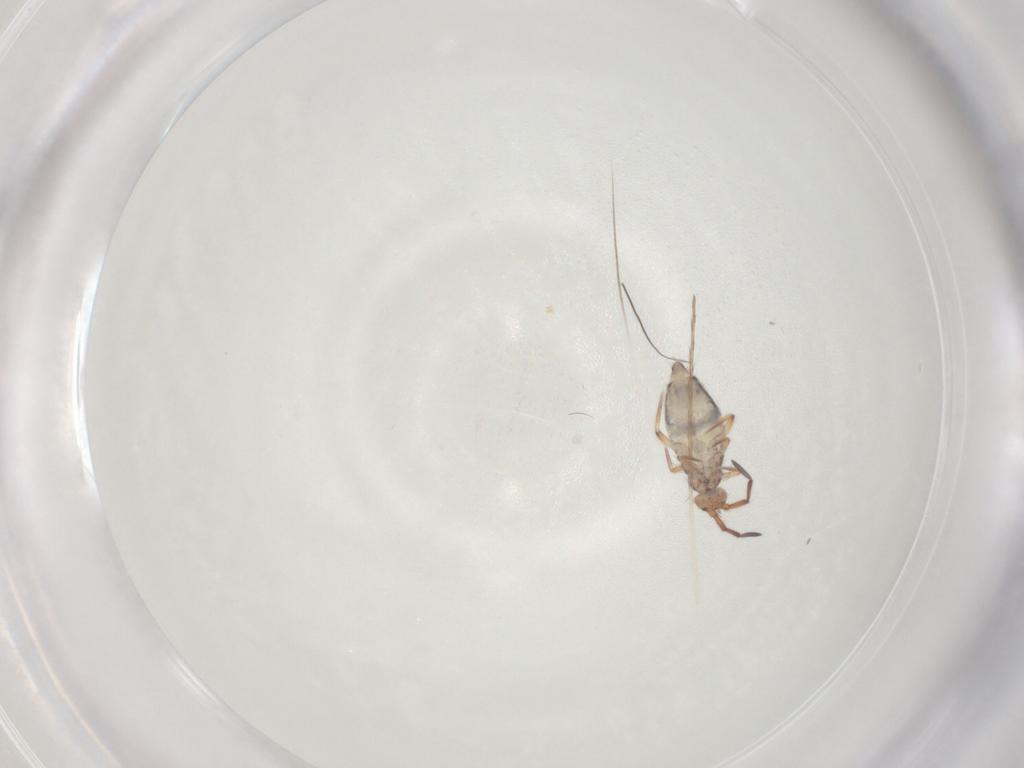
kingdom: Animalia
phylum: Arthropoda
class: Collembola
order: Entomobryomorpha
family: Entomobryidae
